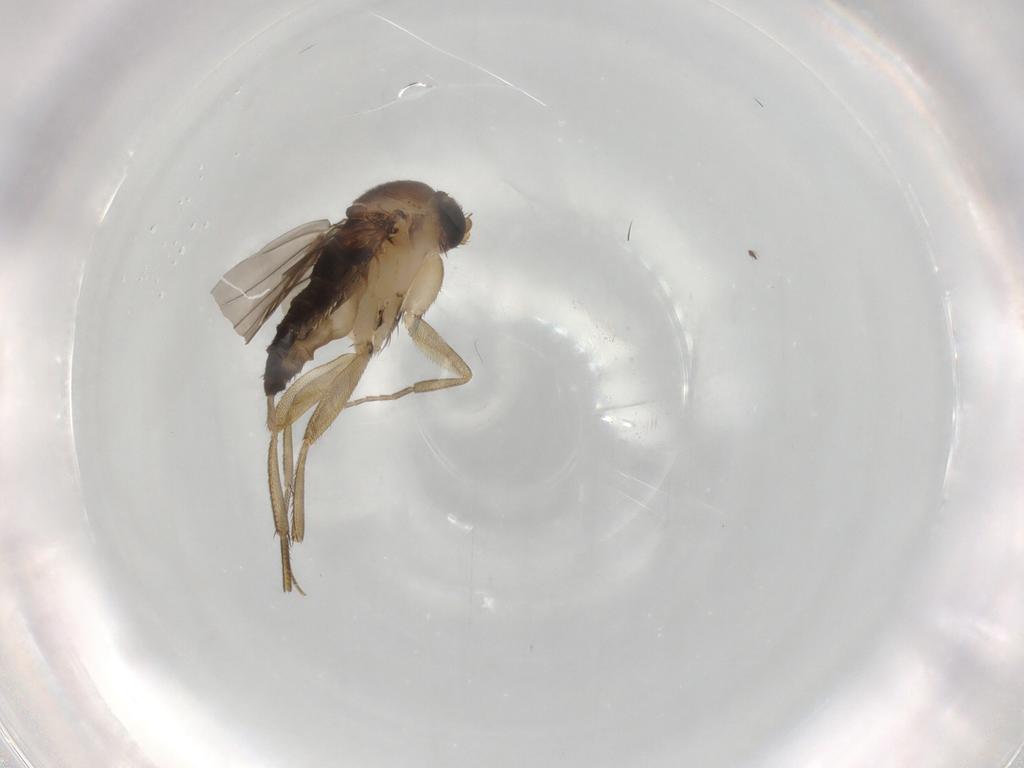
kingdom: Animalia
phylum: Arthropoda
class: Insecta
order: Diptera
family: Ceratopogonidae
